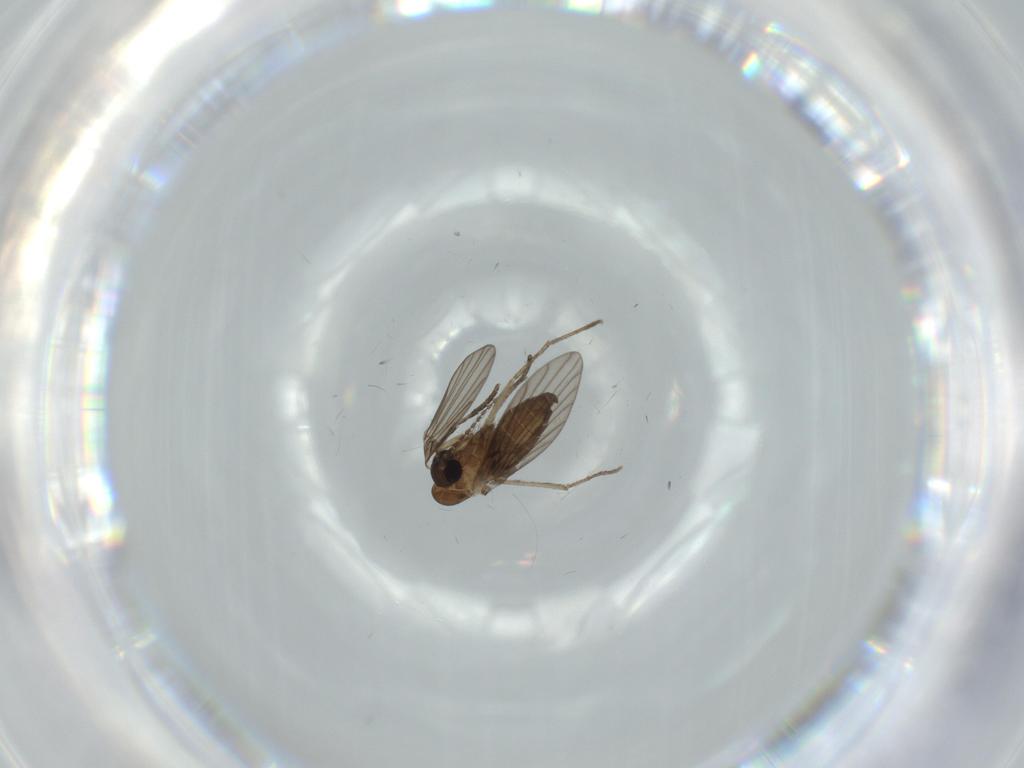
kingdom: Animalia
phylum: Arthropoda
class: Insecta
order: Diptera
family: Psychodidae
